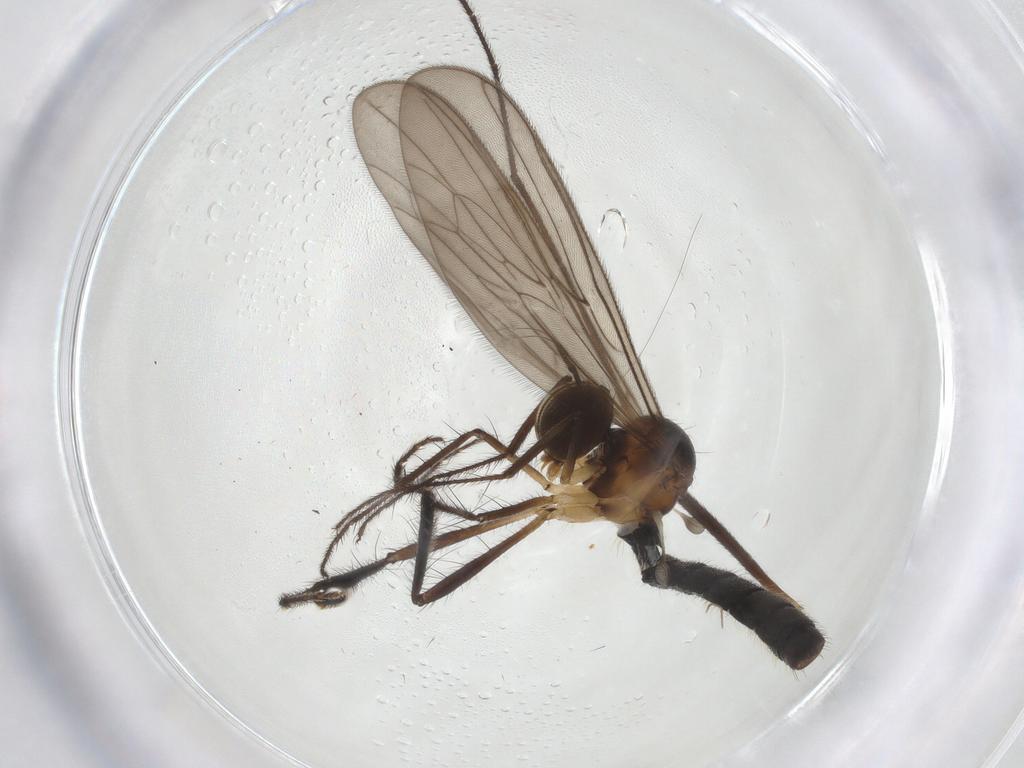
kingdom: Animalia
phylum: Arthropoda
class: Insecta
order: Diptera
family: Hybotidae
